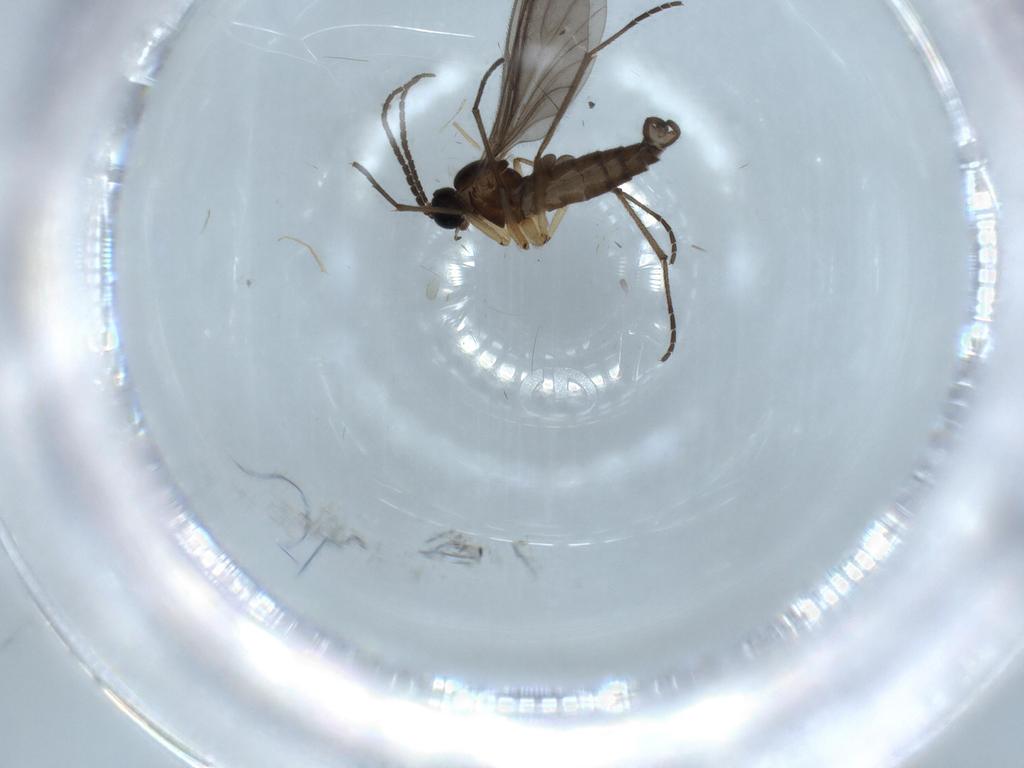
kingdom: Animalia
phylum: Arthropoda
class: Insecta
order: Diptera
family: Sciaridae
